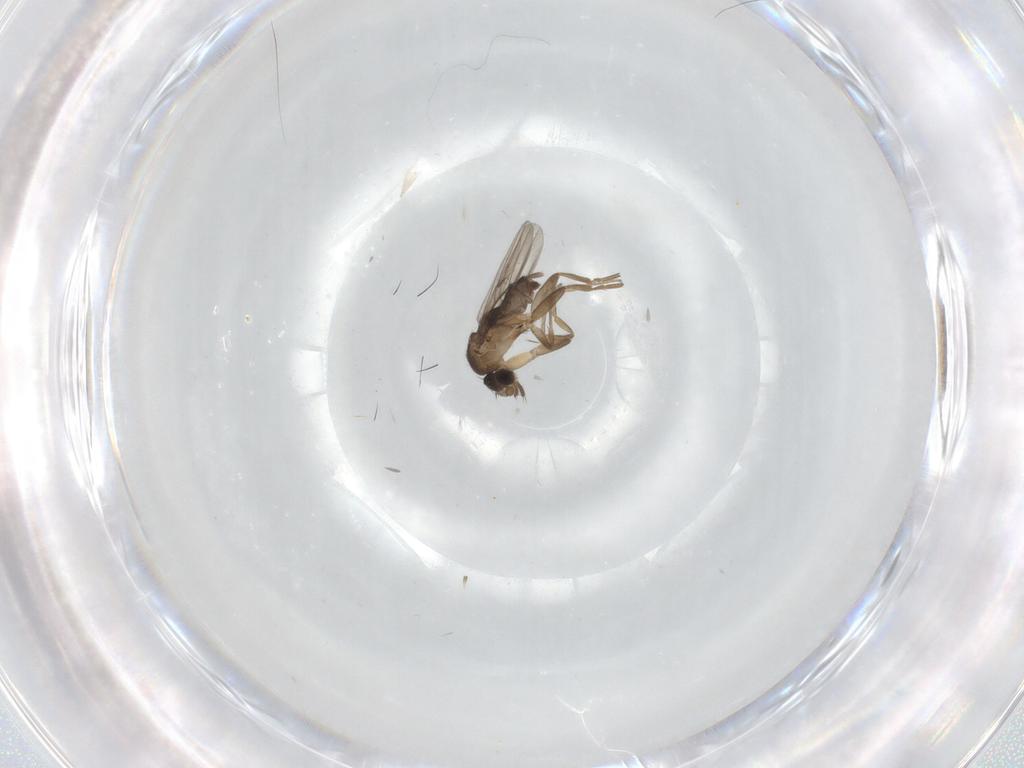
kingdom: Animalia
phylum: Arthropoda
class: Insecta
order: Diptera
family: Phoridae
